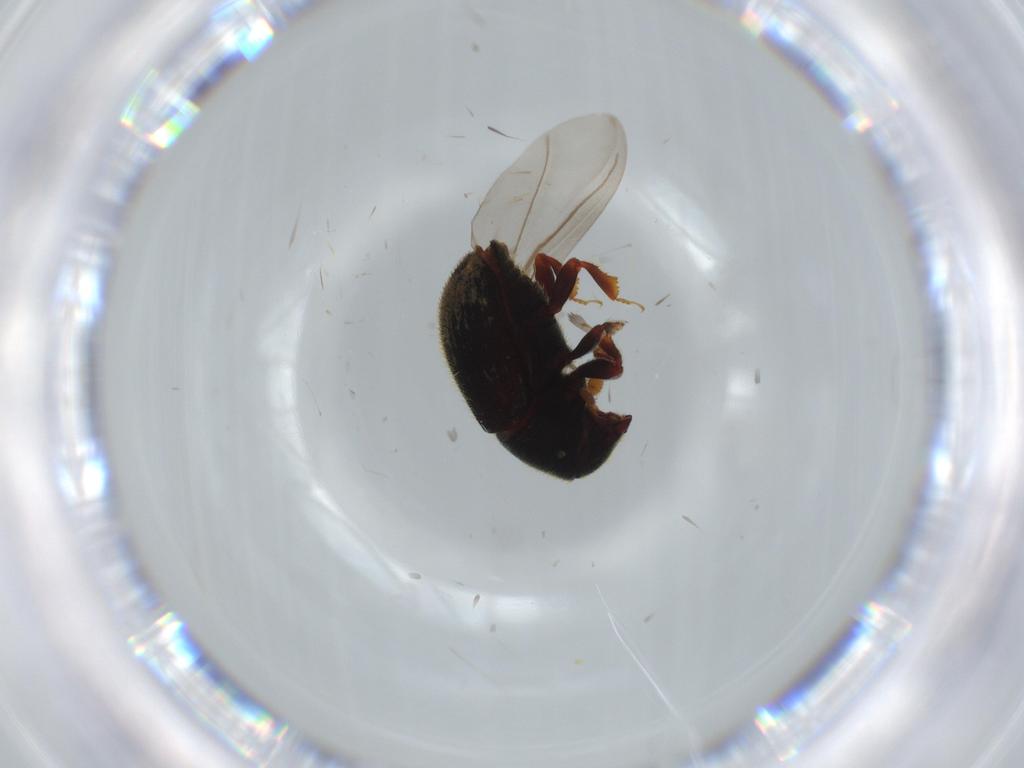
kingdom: Animalia
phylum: Arthropoda
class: Insecta
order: Coleoptera
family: Curculionidae
